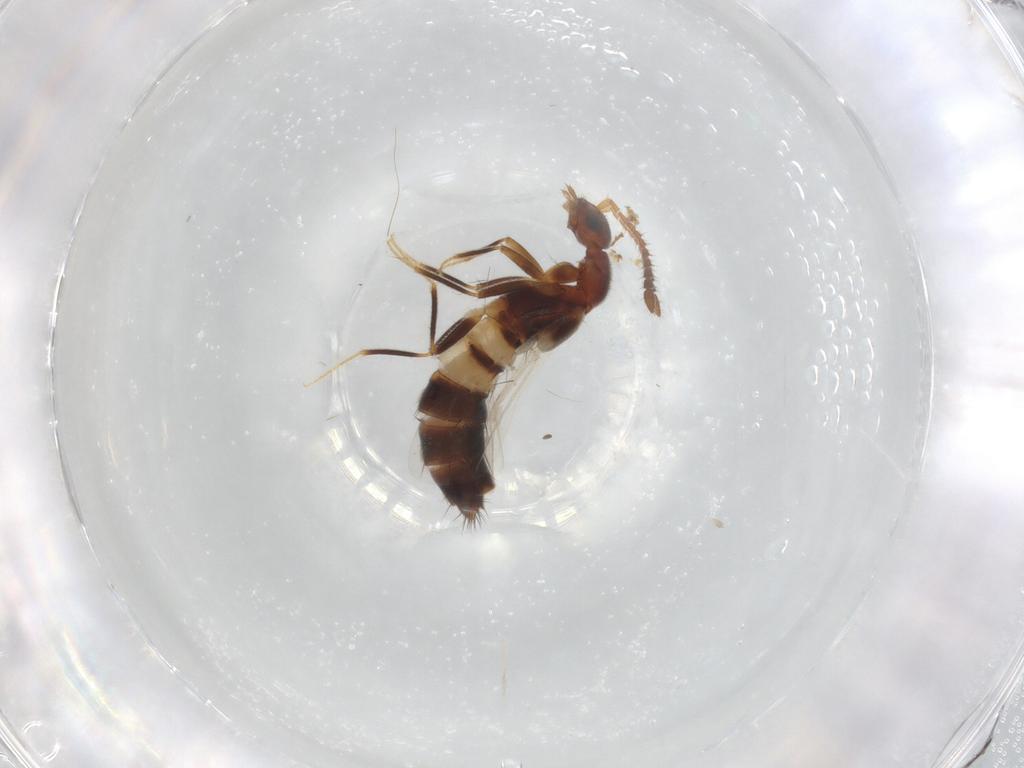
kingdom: Animalia
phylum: Arthropoda
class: Insecta
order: Coleoptera
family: Staphylinidae
